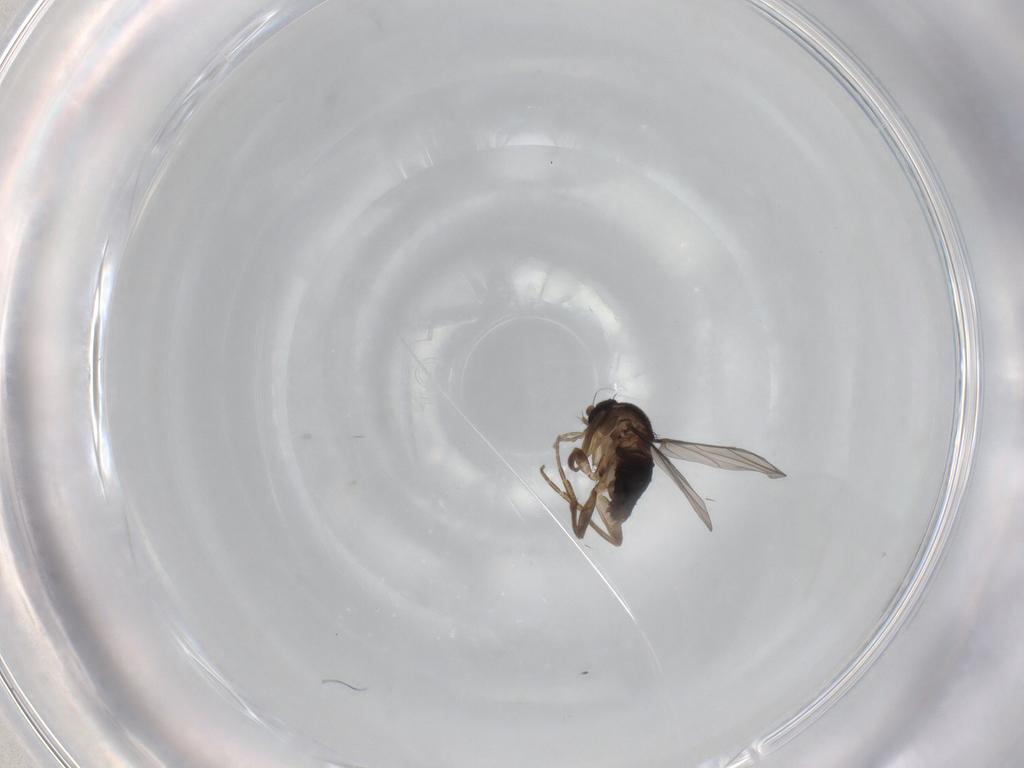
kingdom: Animalia
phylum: Arthropoda
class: Insecta
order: Diptera
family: Phoridae
